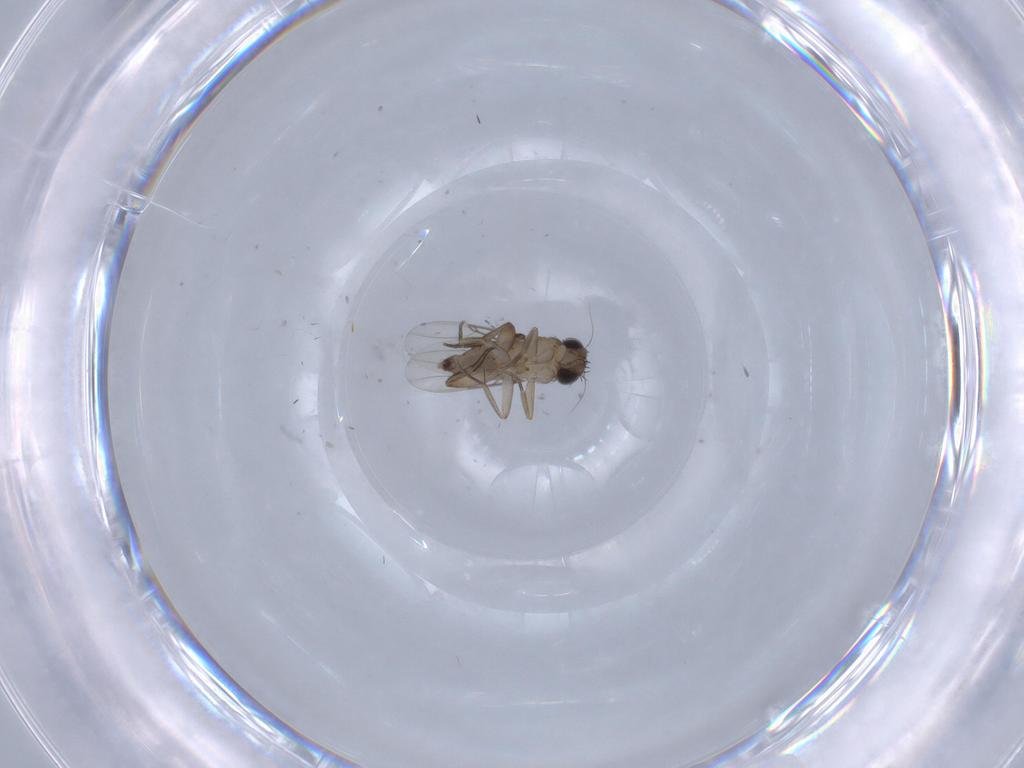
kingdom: Animalia
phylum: Arthropoda
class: Insecta
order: Diptera
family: Phoridae
